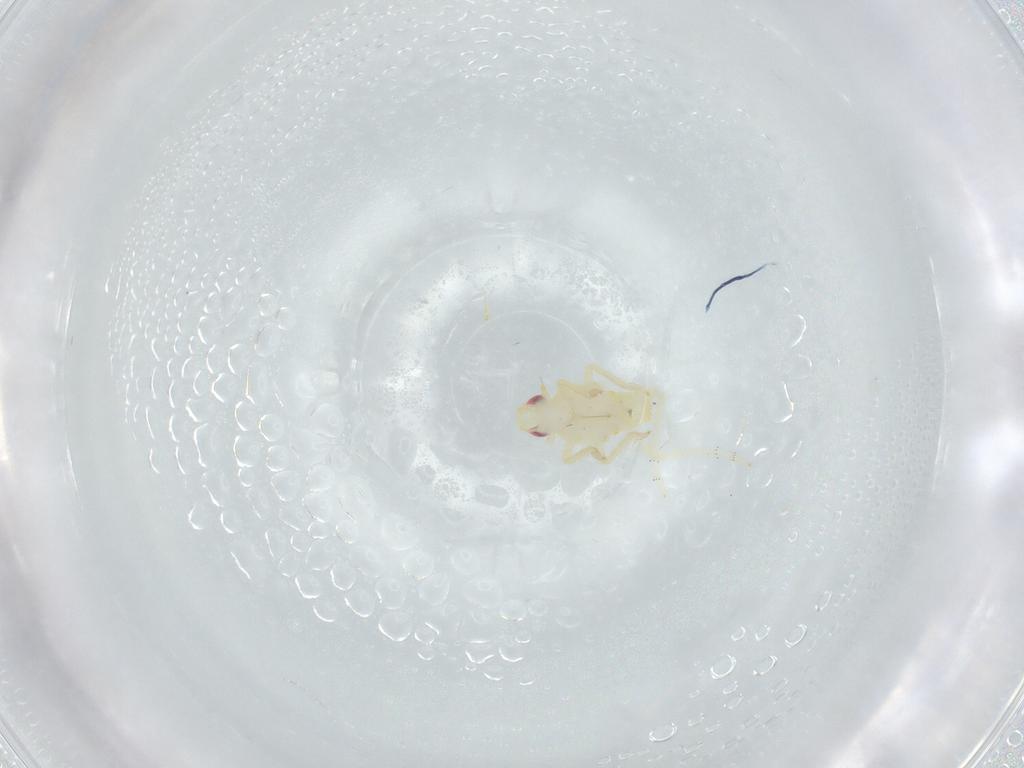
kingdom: Animalia
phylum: Arthropoda
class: Insecta
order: Hemiptera
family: Tropiduchidae
